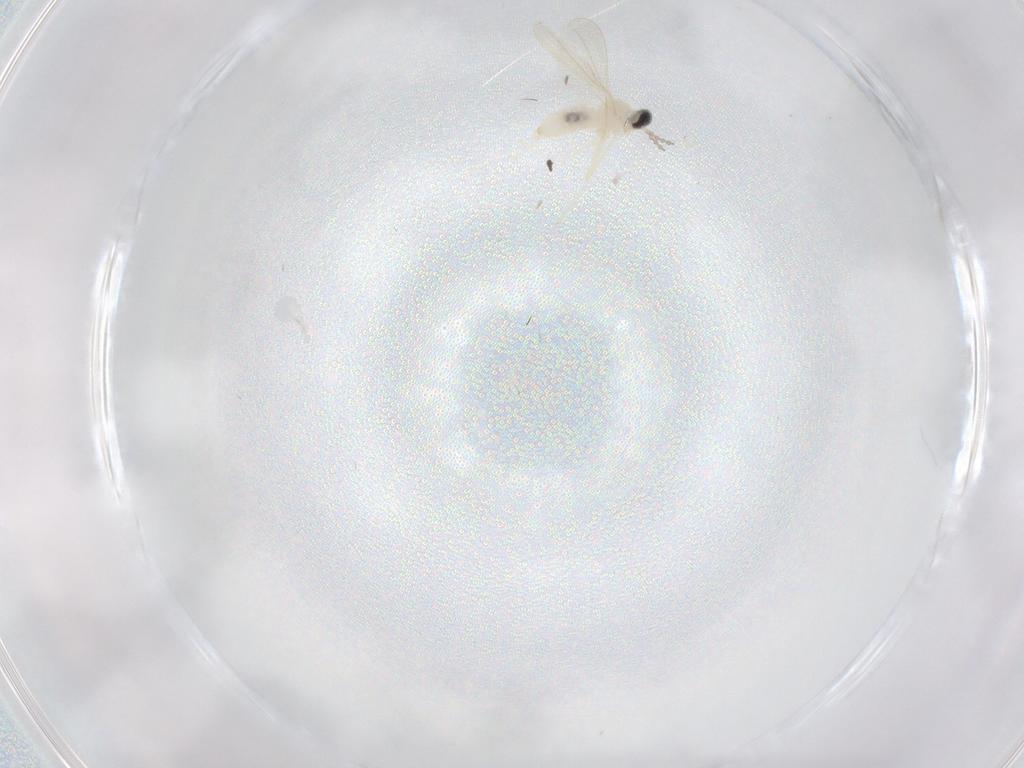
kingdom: Animalia
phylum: Arthropoda
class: Insecta
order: Diptera
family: Cecidomyiidae
